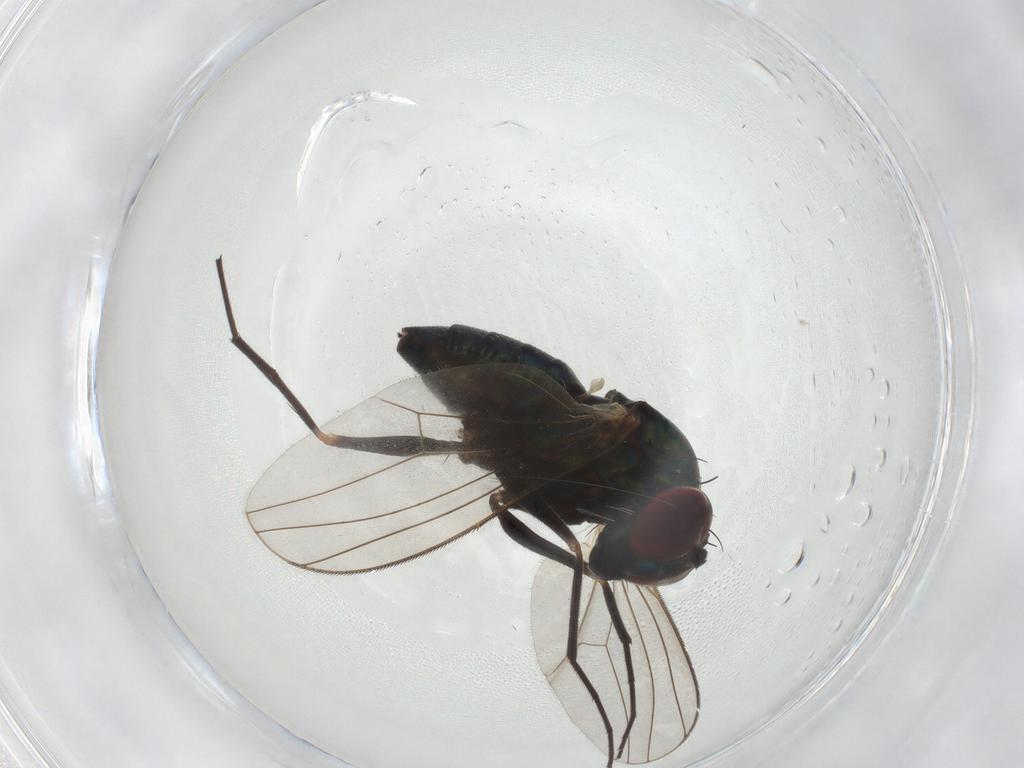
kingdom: Animalia
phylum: Arthropoda
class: Insecta
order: Diptera
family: Dolichopodidae
